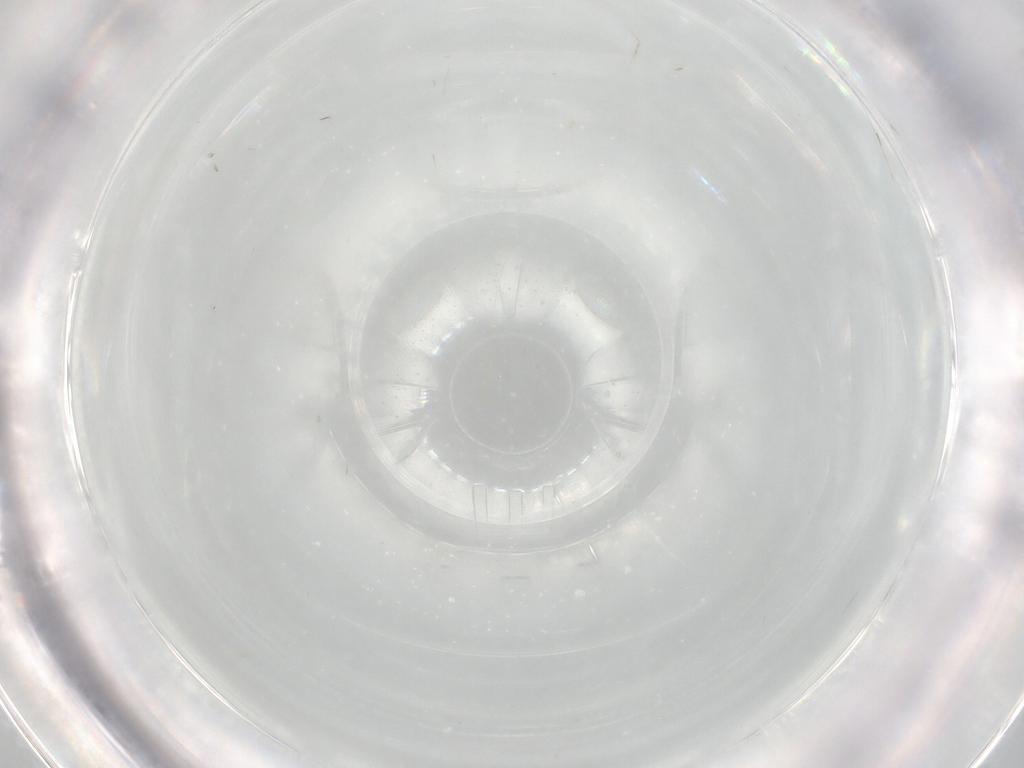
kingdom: Animalia
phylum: Arthropoda
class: Insecta
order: Diptera
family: Cecidomyiidae
